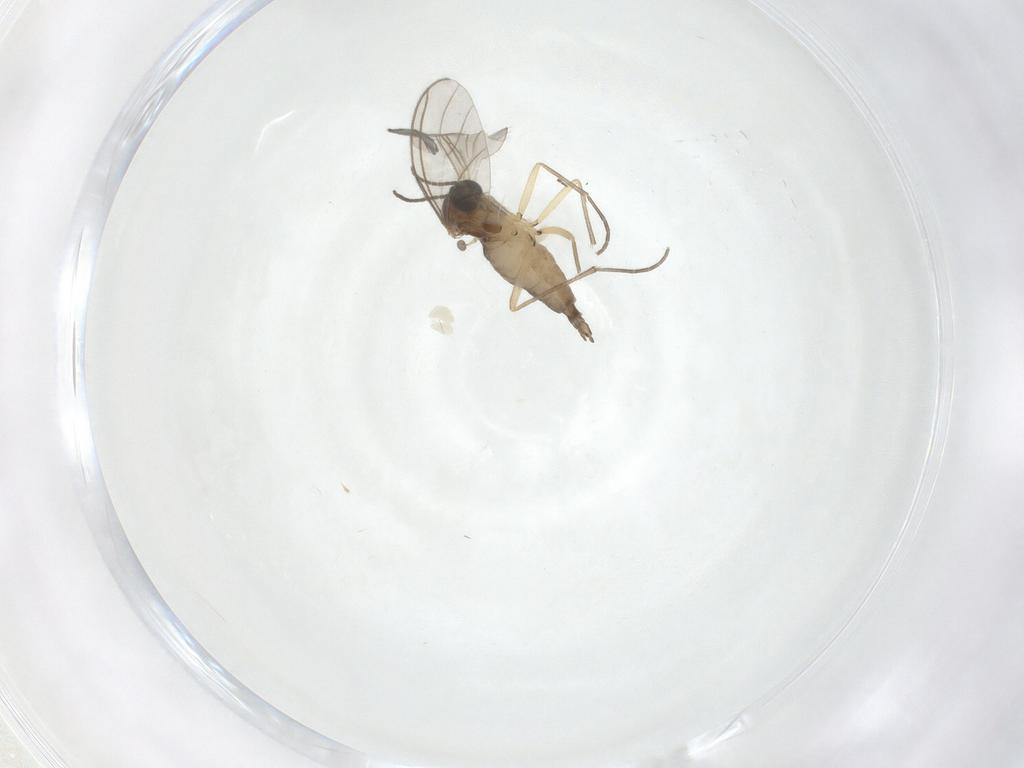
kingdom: Animalia
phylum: Arthropoda
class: Insecta
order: Diptera
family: Sciaridae
